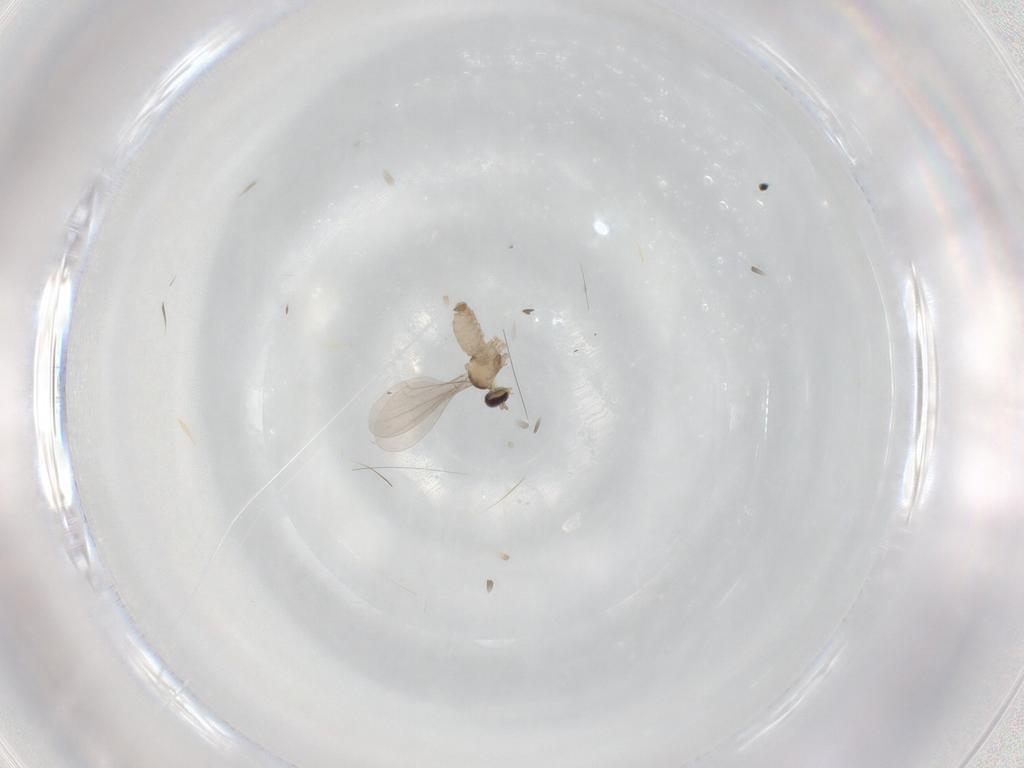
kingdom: Animalia
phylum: Arthropoda
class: Insecta
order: Diptera
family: Cecidomyiidae
